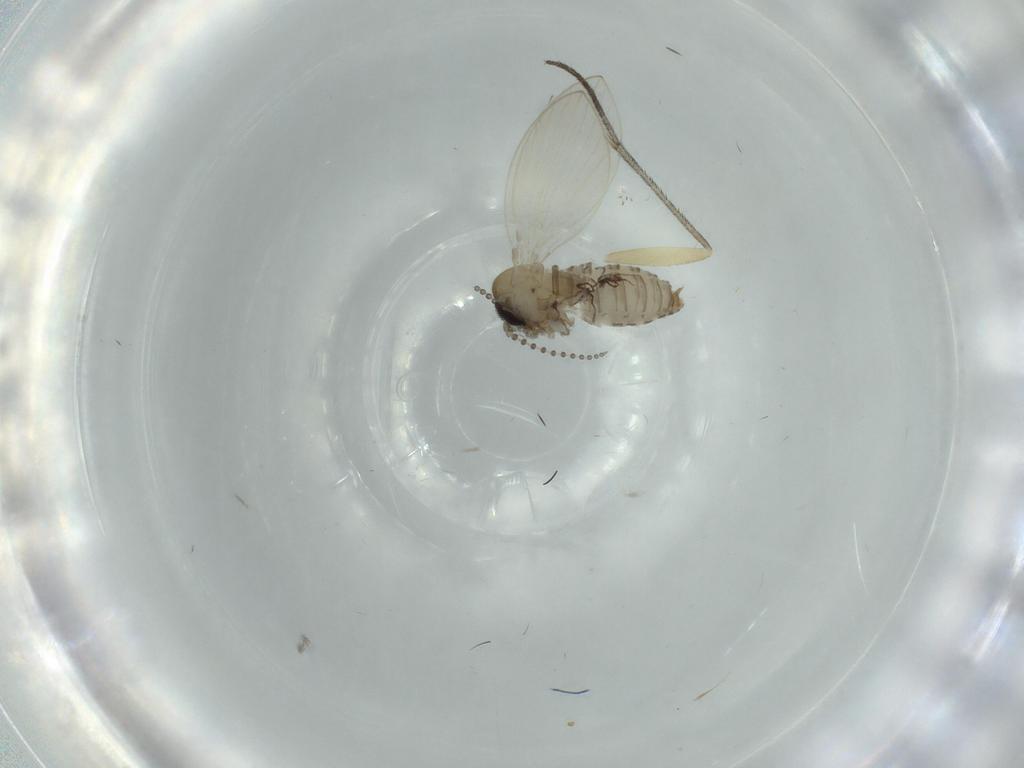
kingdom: Animalia
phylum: Arthropoda
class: Insecta
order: Diptera
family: Psychodidae
